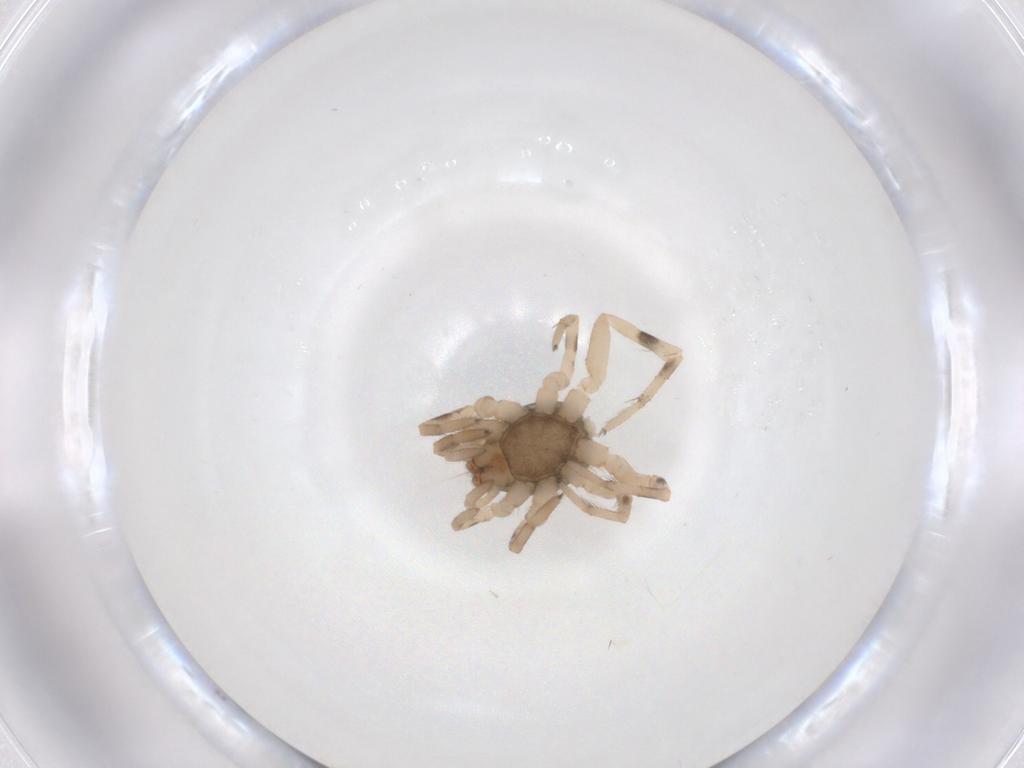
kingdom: Animalia
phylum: Arthropoda
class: Arachnida
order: Araneae
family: Gnaphosidae
